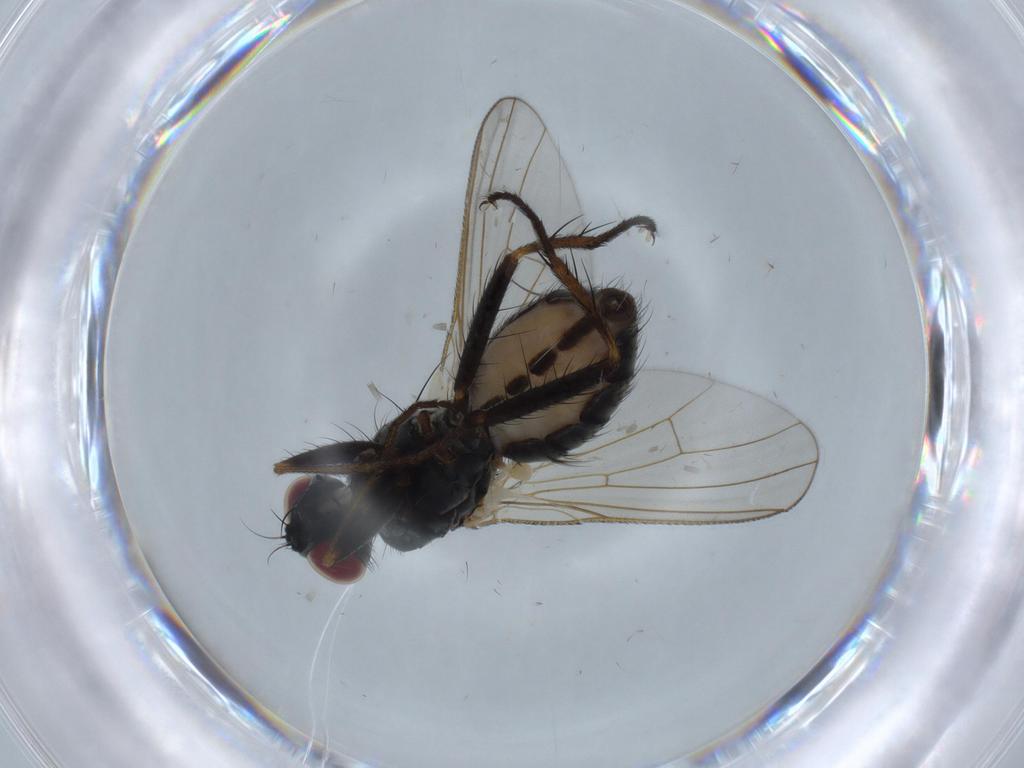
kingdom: Animalia
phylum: Arthropoda
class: Insecta
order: Diptera
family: Muscidae
